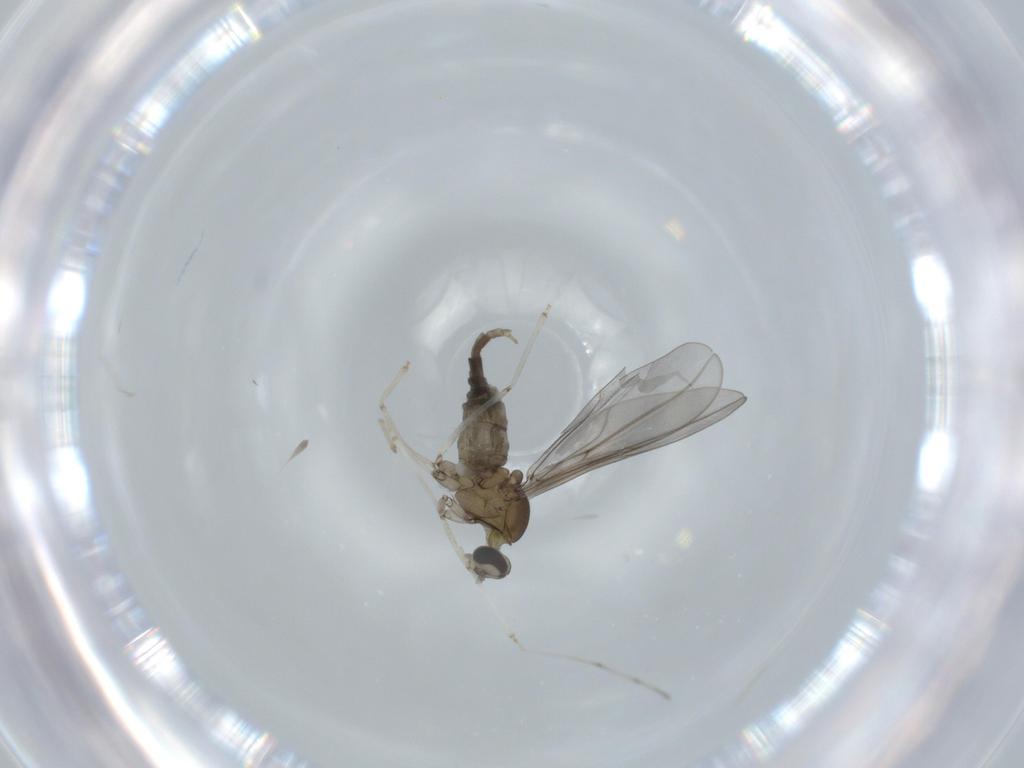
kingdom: Animalia
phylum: Arthropoda
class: Insecta
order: Diptera
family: Cecidomyiidae
